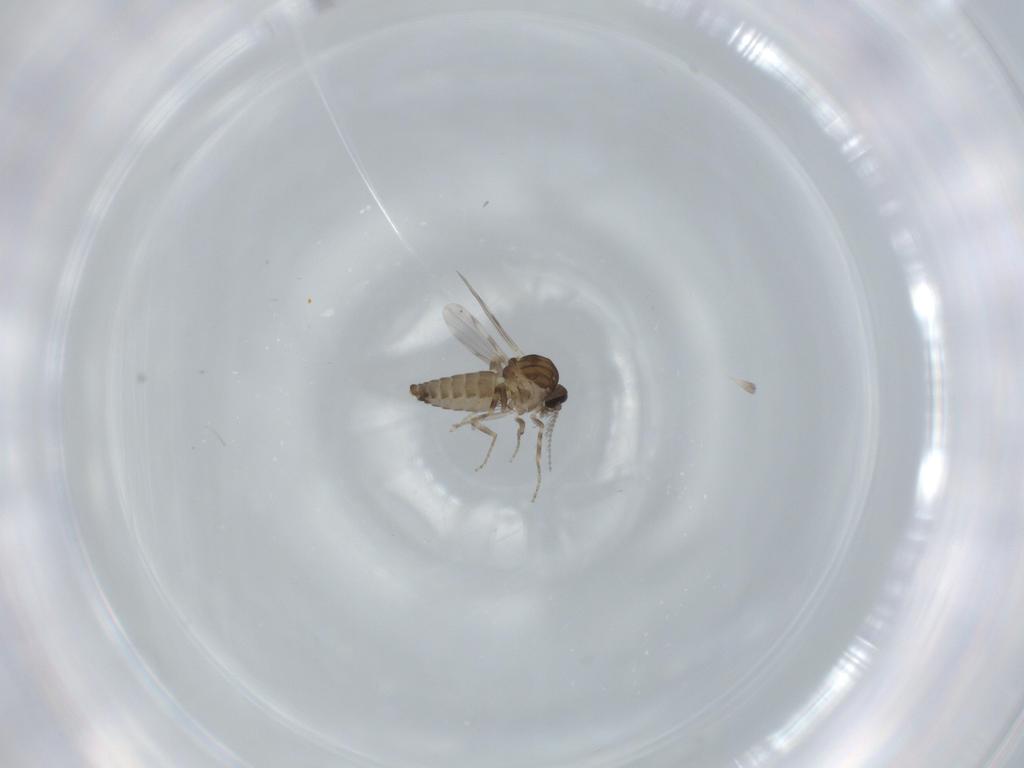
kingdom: Animalia
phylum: Arthropoda
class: Insecta
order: Diptera
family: Ceratopogonidae
